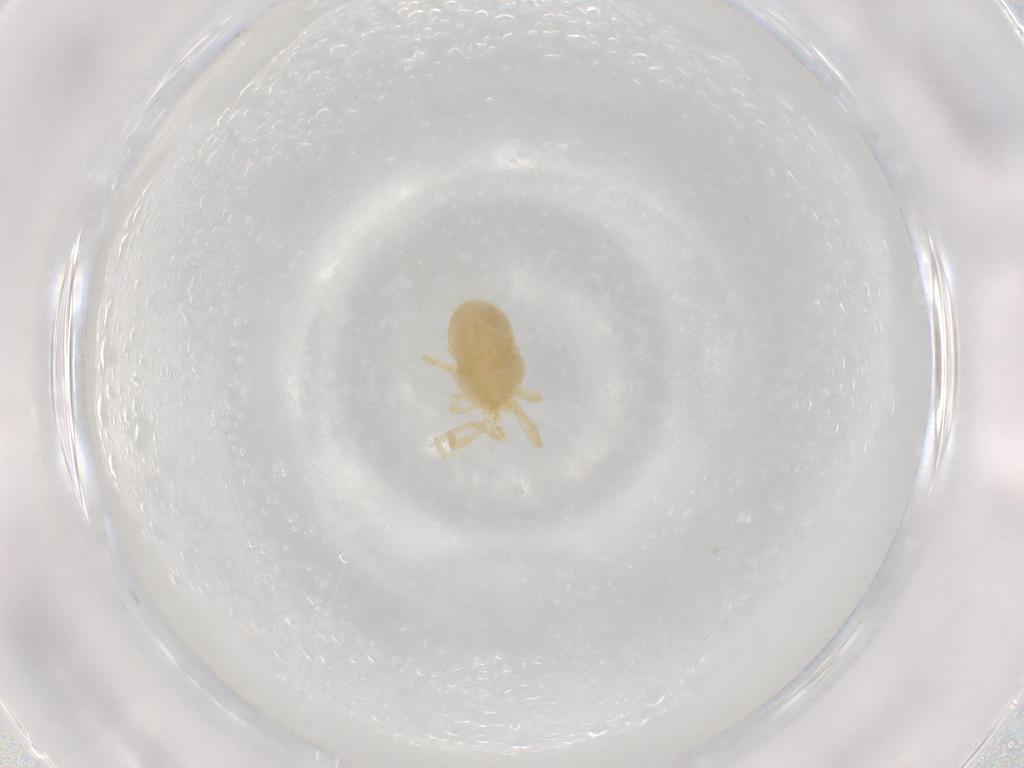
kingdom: Animalia
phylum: Arthropoda
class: Arachnida
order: Trombidiformes
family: Erythraeidae
